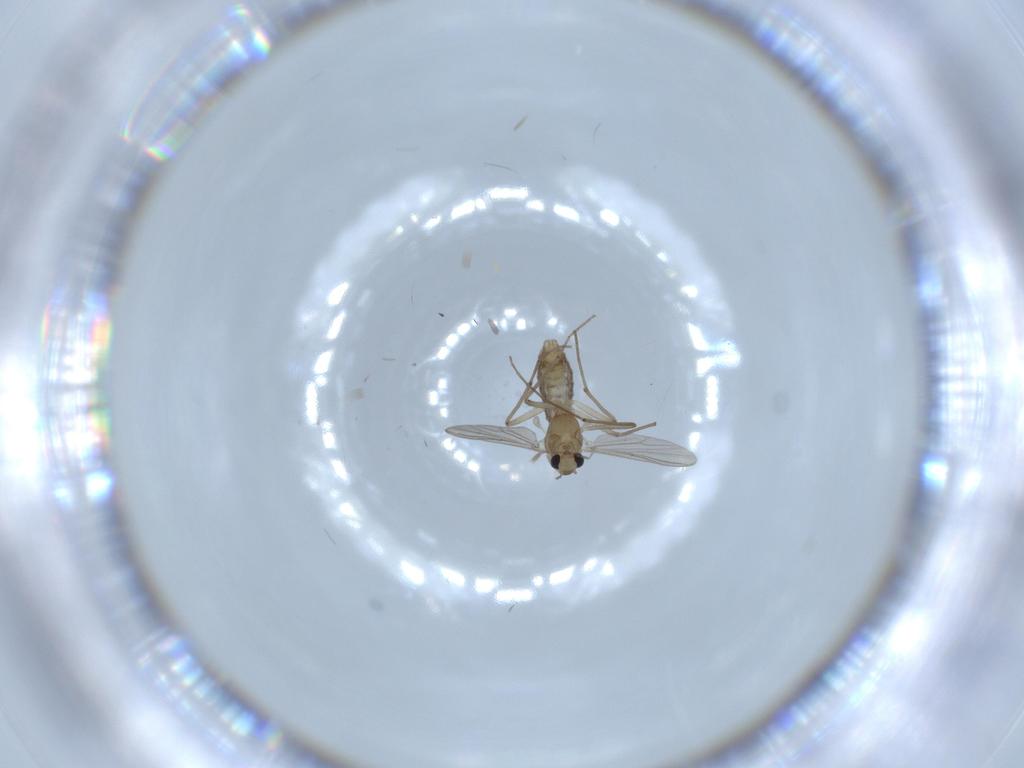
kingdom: Animalia
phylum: Arthropoda
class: Insecta
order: Diptera
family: Chironomidae
